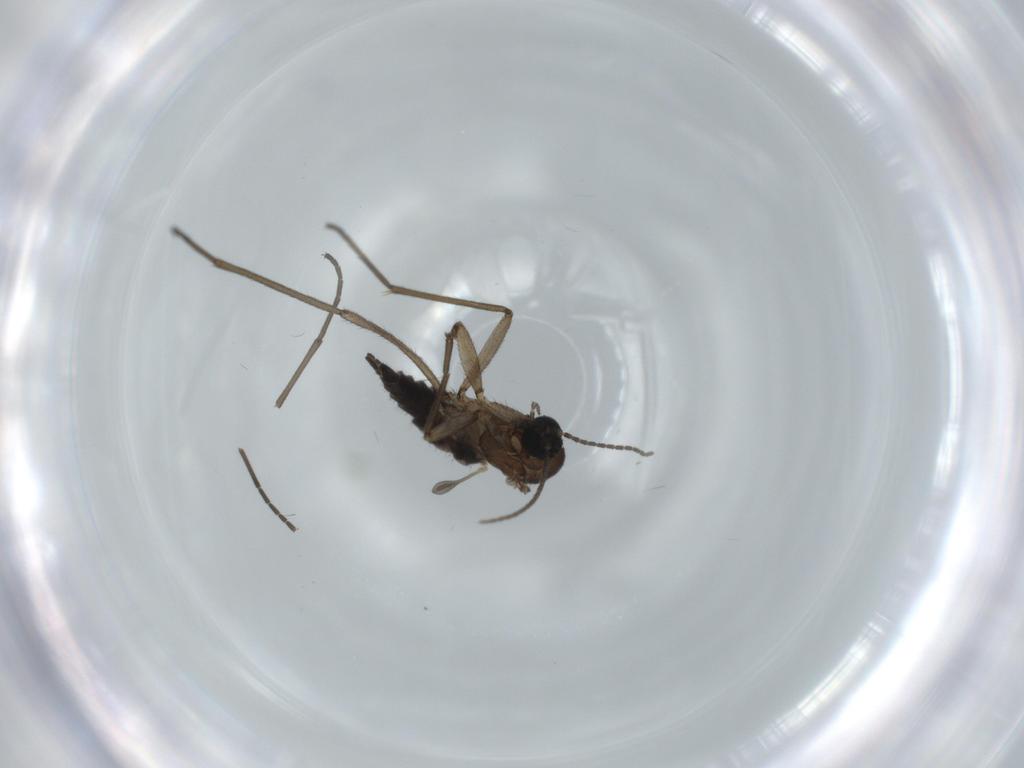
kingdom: Animalia
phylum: Arthropoda
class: Insecta
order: Diptera
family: Sciaridae
